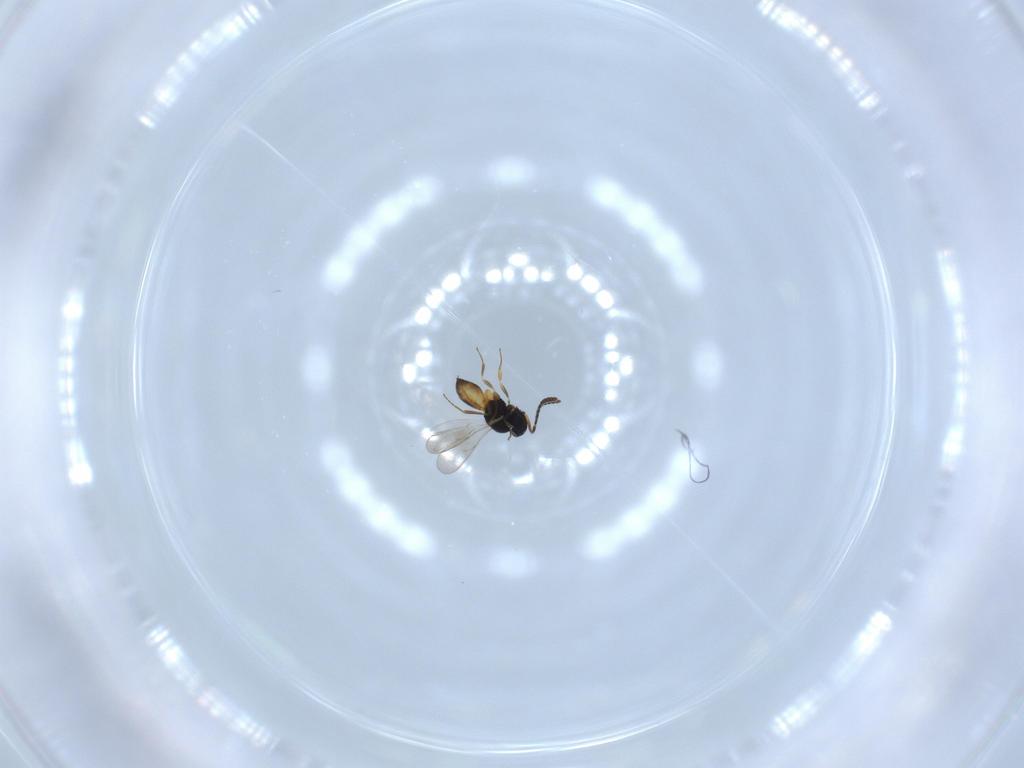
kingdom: Animalia
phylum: Arthropoda
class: Insecta
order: Hymenoptera
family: Scelionidae
